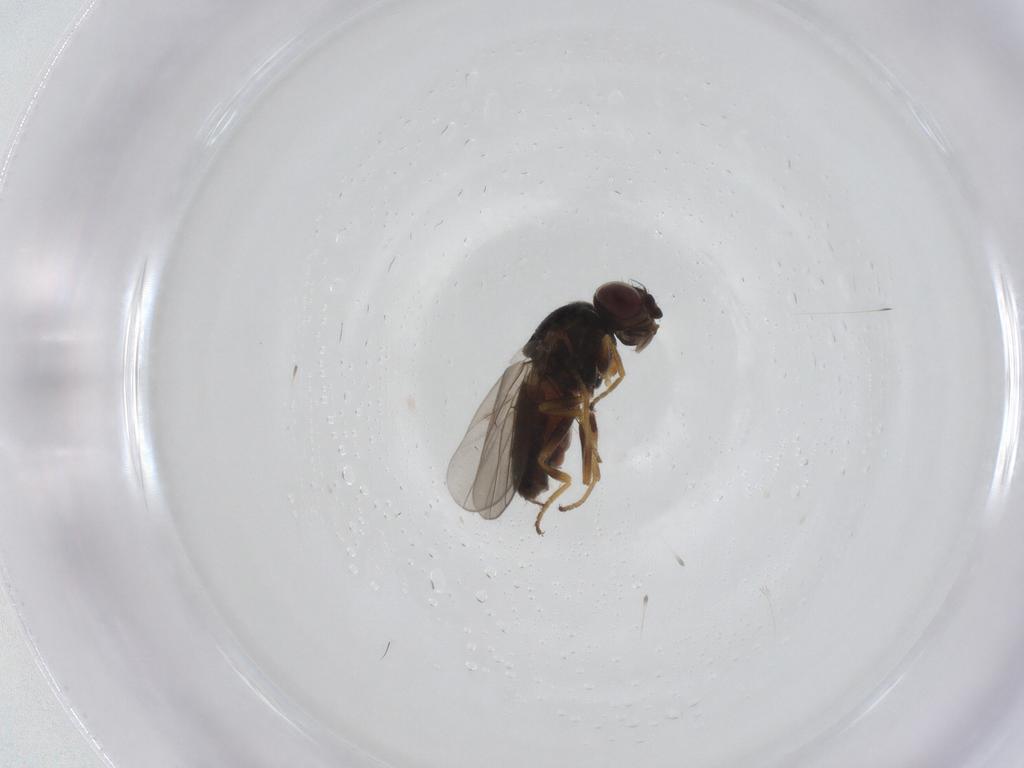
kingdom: Animalia
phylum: Arthropoda
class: Insecta
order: Diptera
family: Chloropidae
